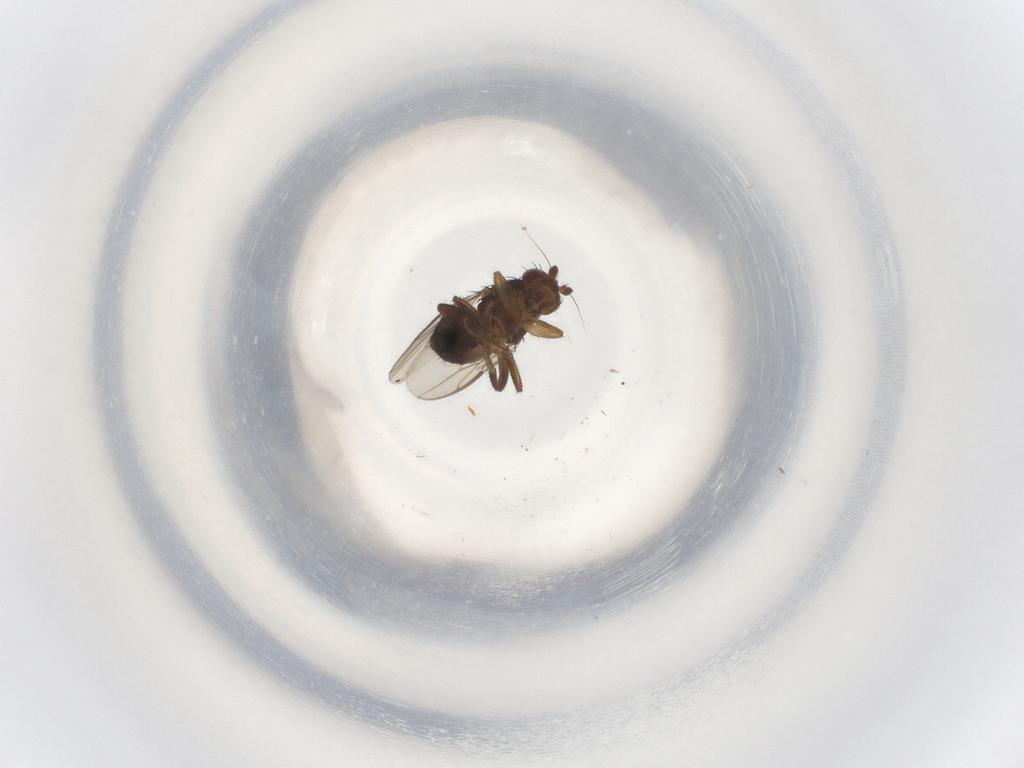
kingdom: Animalia
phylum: Arthropoda
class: Insecta
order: Diptera
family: Sphaeroceridae
